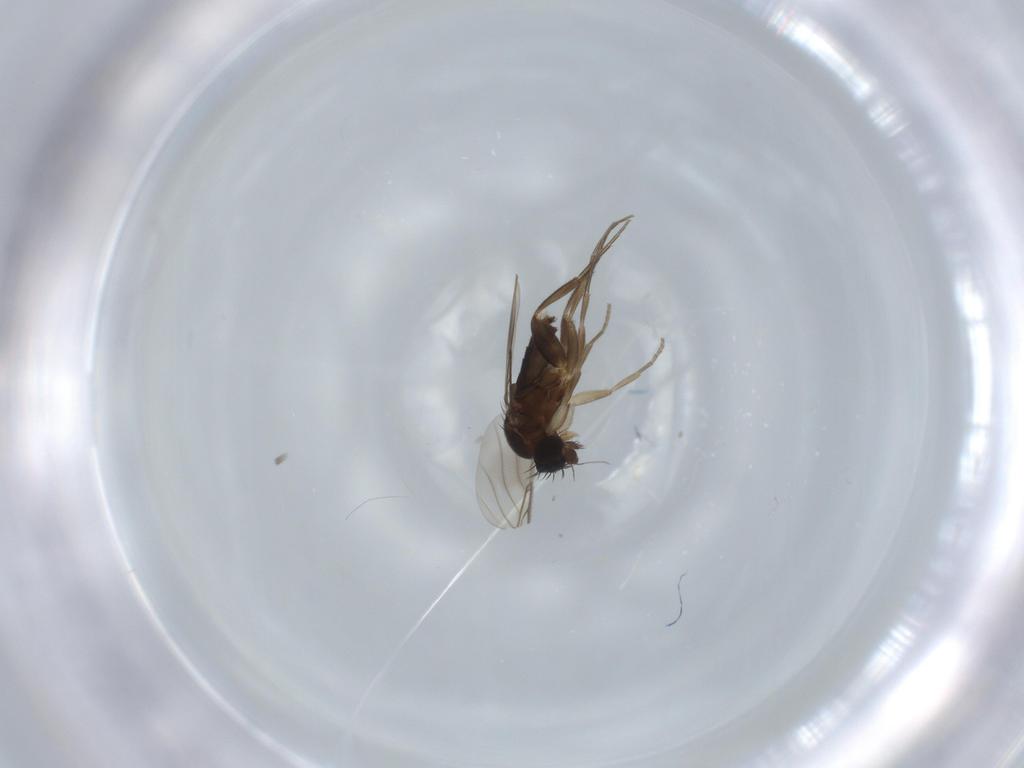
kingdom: Animalia
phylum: Arthropoda
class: Insecta
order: Diptera
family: Phoridae
